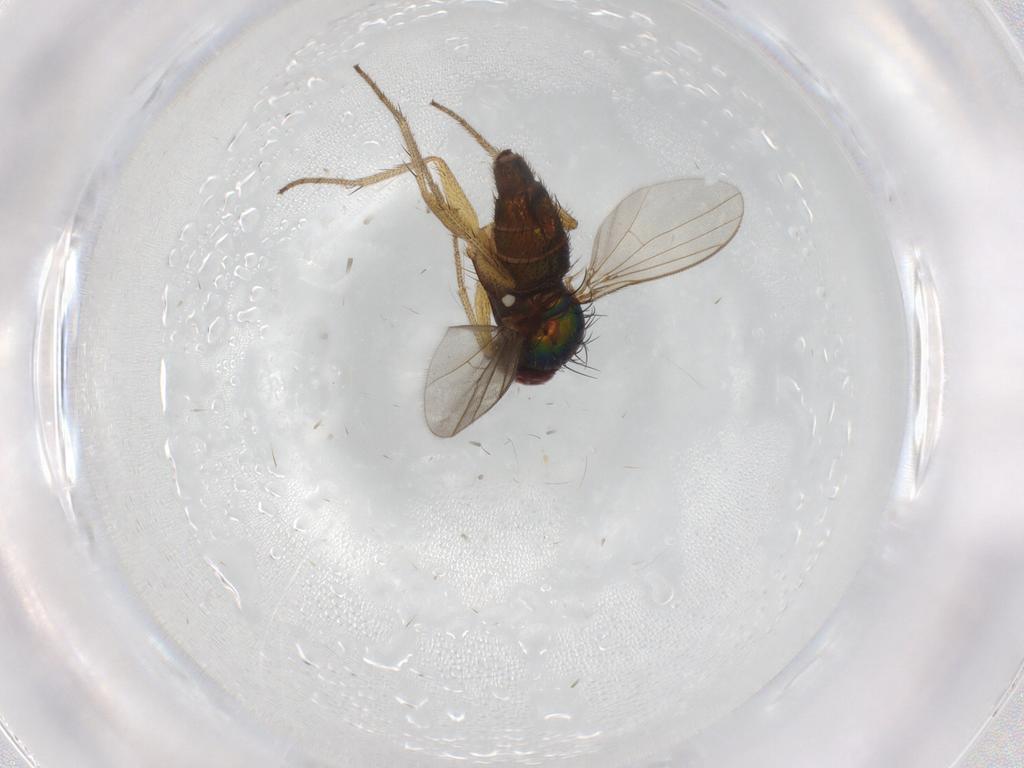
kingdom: Animalia
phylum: Arthropoda
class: Insecta
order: Diptera
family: Dolichopodidae
